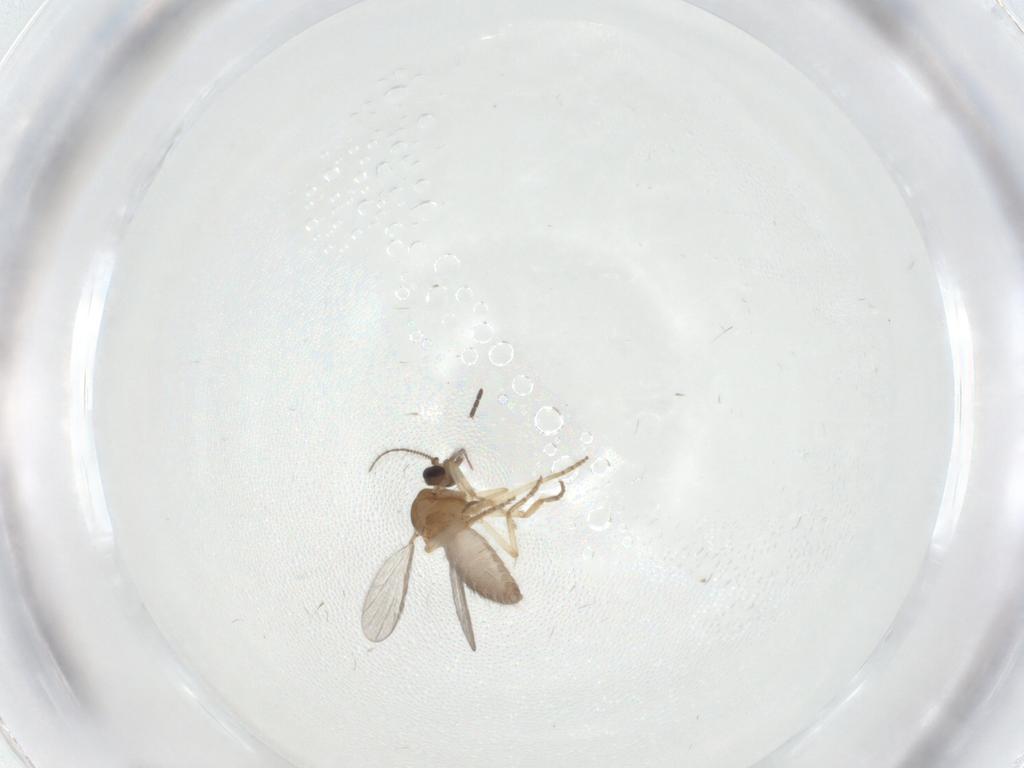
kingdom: Animalia
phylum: Arthropoda
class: Insecta
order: Diptera
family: Ceratopogonidae
